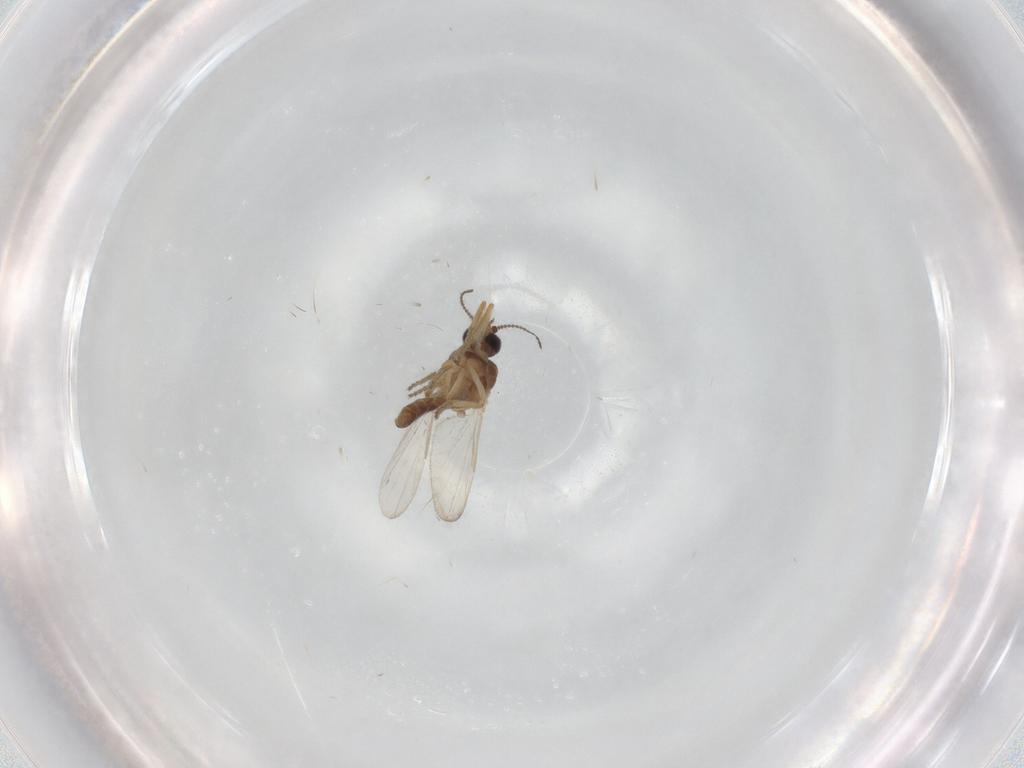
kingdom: Animalia
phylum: Arthropoda
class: Insecta
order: Diptera
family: Ceratopogonidae
